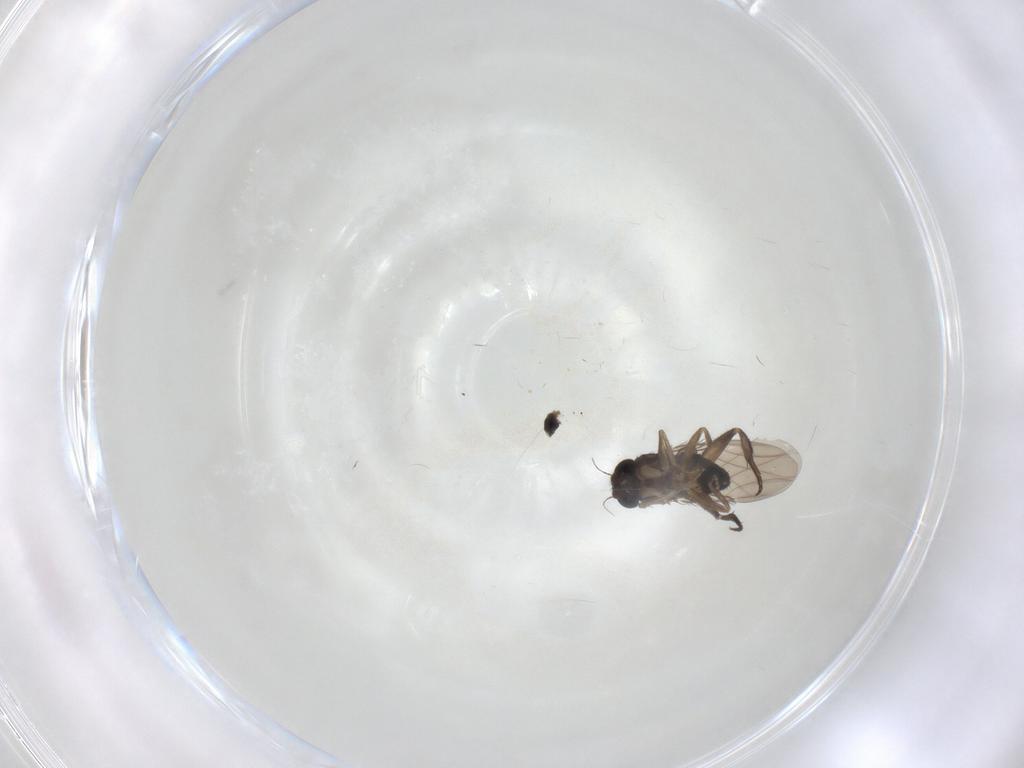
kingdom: Animalia
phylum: Arthropoda
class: Insecta
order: Diptera
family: Phoridae
